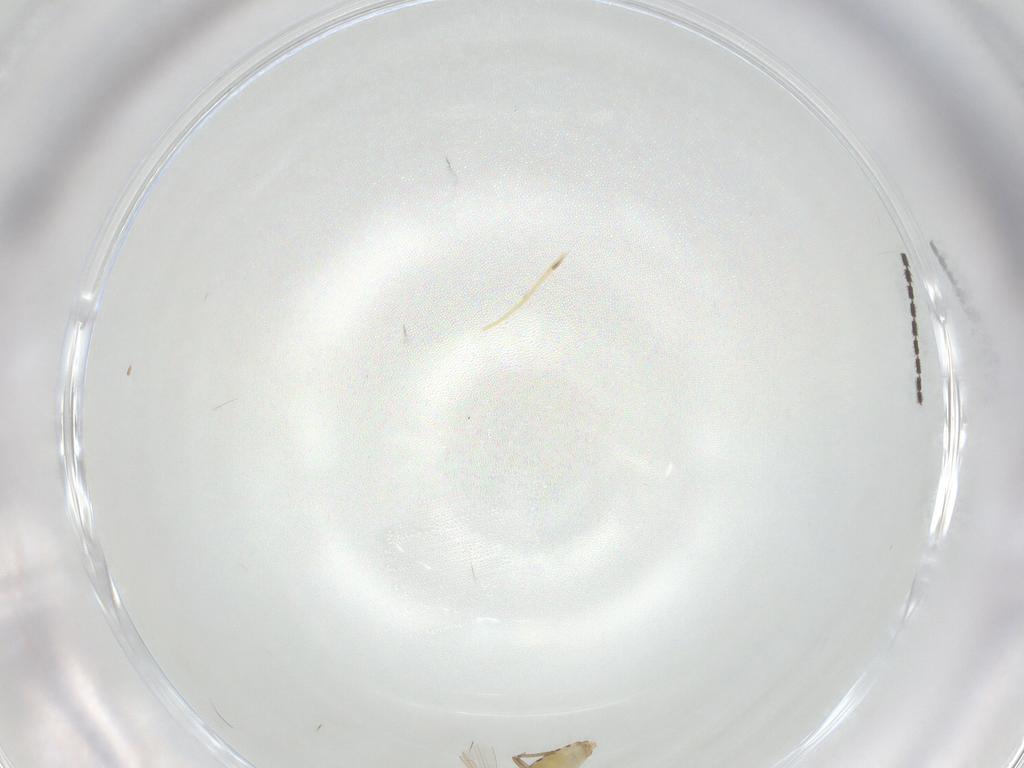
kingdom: Animalia
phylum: Arthropoda
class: Insecta
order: Diptera
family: Chironomidae
